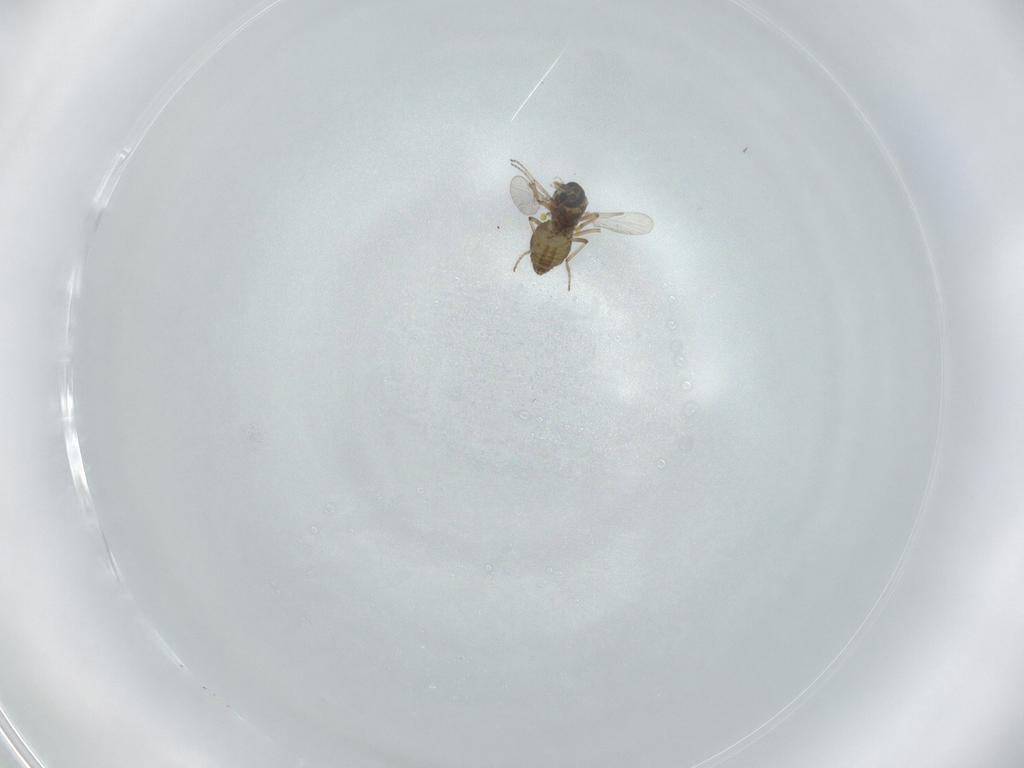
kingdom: Animalia
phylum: Arthropoda
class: Insecta
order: Diptera
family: Ceratopogonidae
